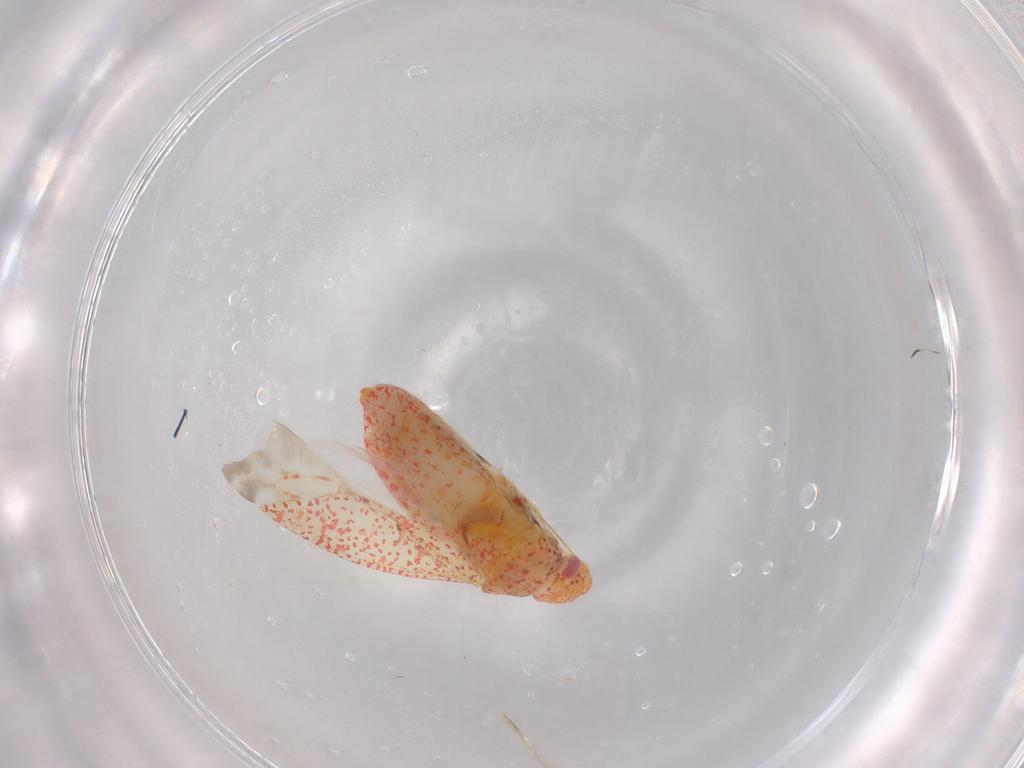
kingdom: Animalia
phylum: Arthropoda
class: Insecta
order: Hemiptera
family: Miridae
